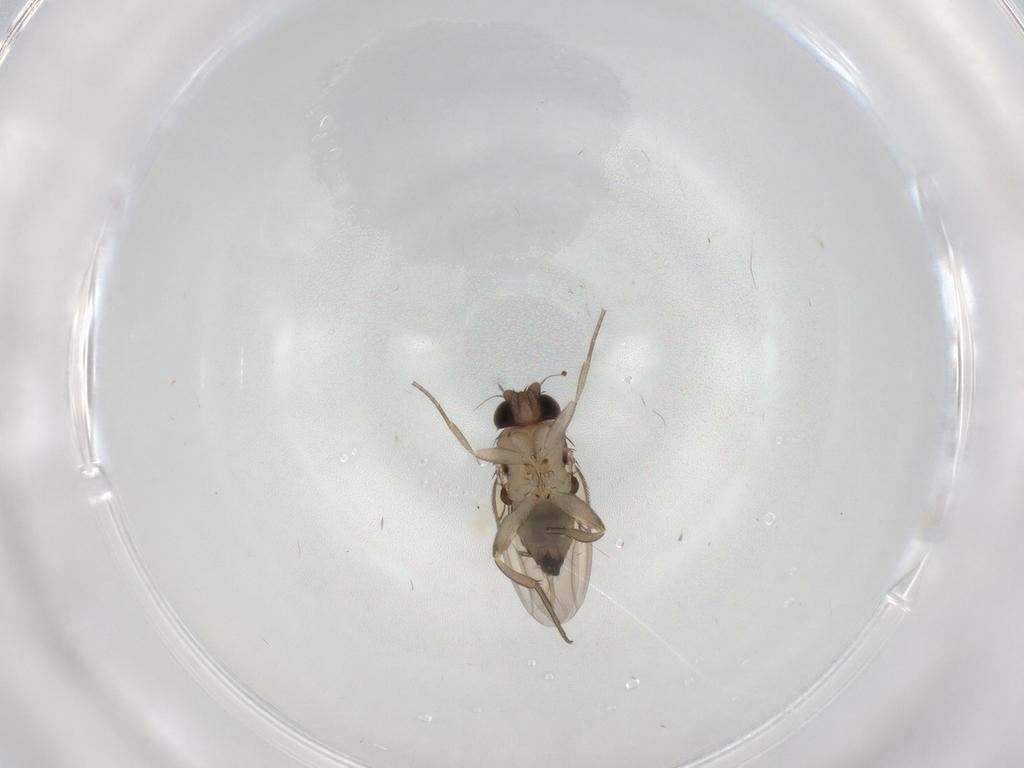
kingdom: Animalia
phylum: Arthropoda
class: Insecta
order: Diptera
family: Phoridae
